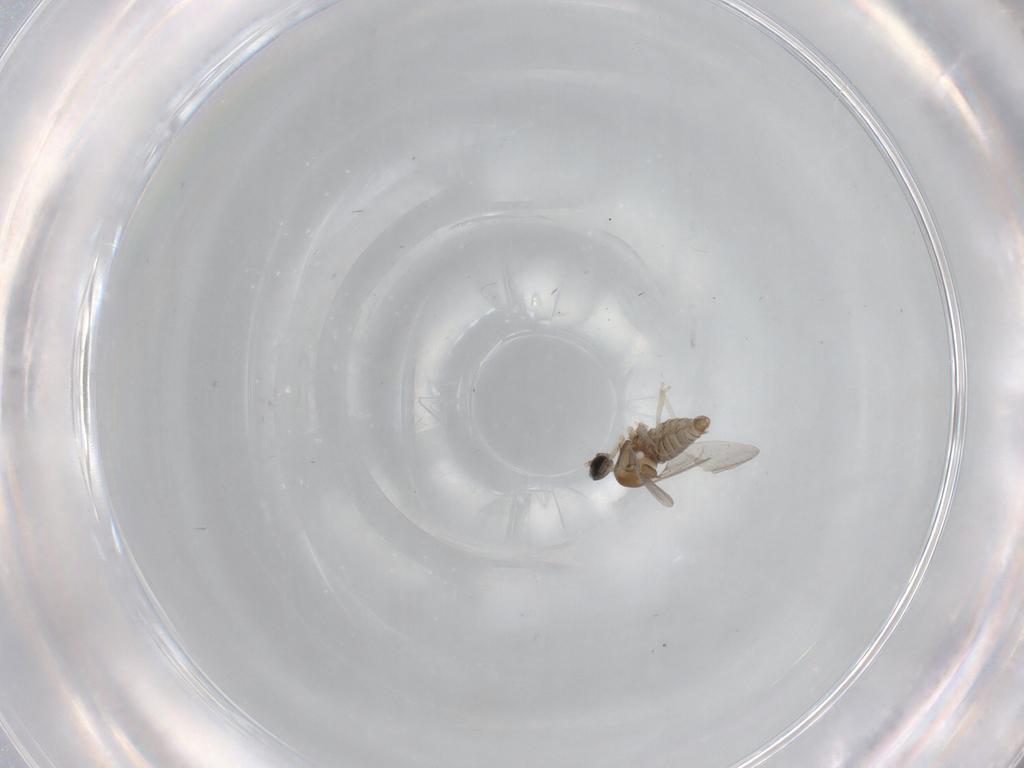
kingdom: Animalia
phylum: Arthropoda
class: Insecta
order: Diptera
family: Cecidomyiidae
